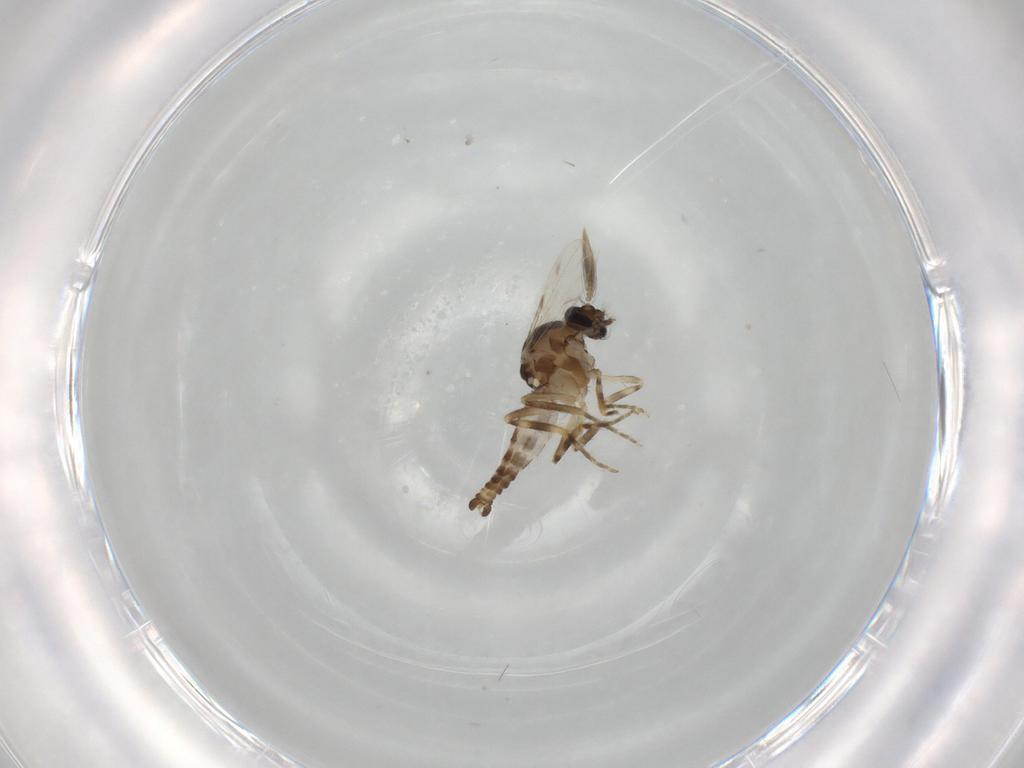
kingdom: Animalia
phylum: Arthropoda
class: Insecta
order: Diptera
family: Ceratopogonidae
